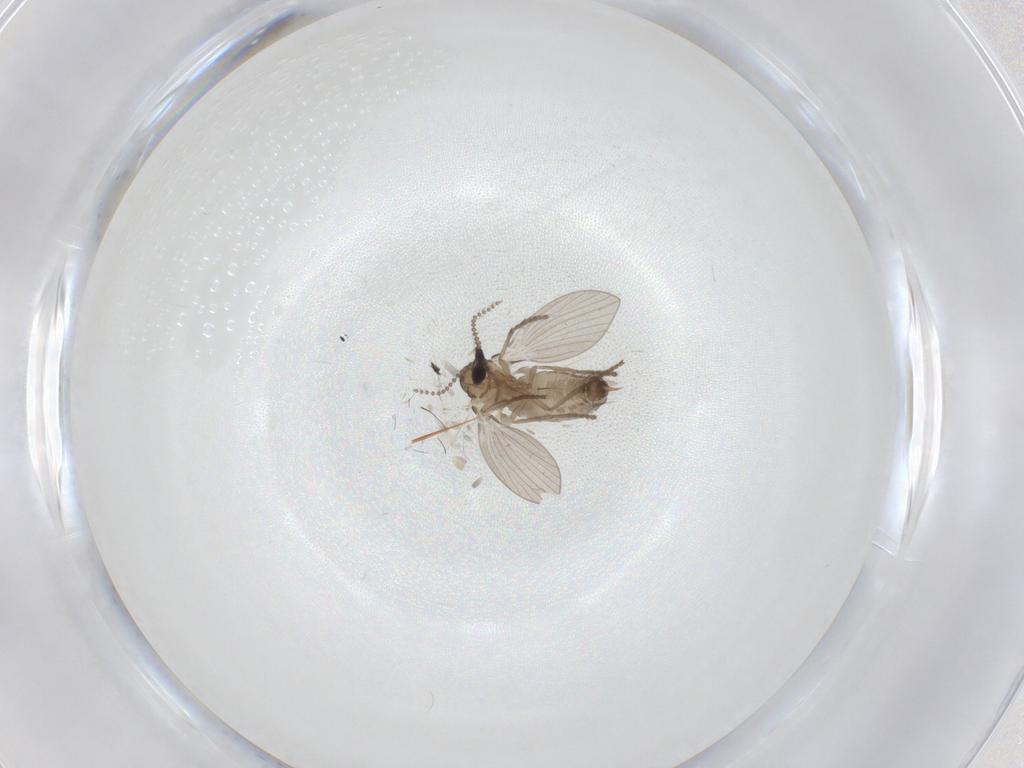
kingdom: Animalia
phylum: Arthropoda
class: Insecta
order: Diptera
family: Psychodidae
